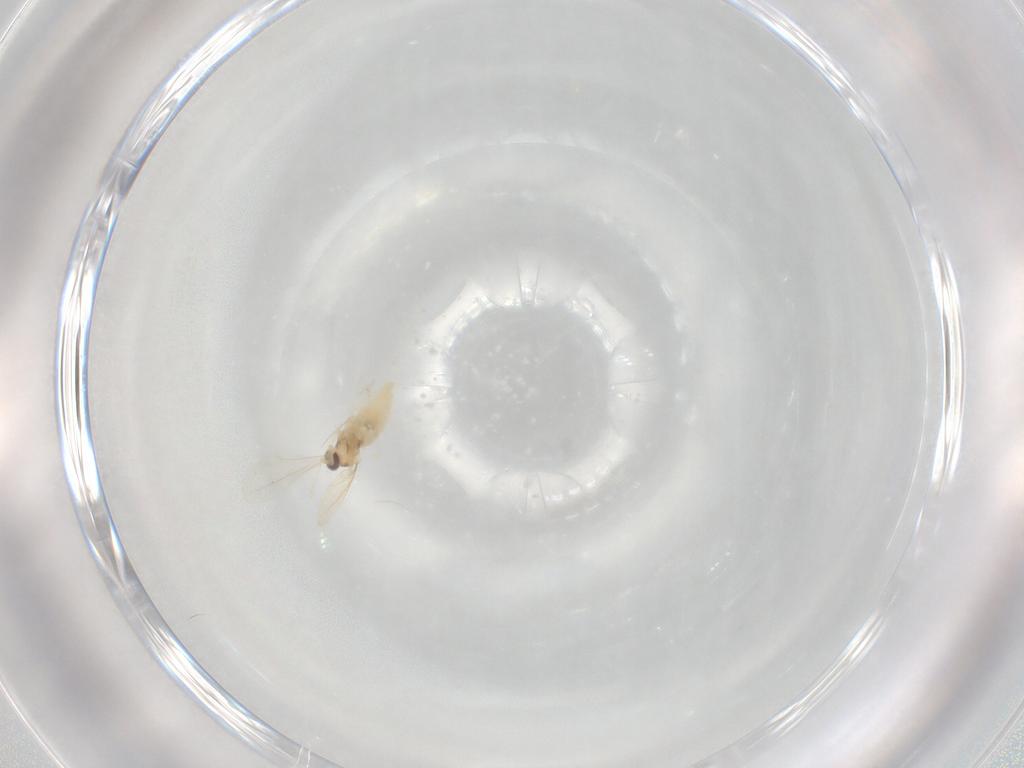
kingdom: Animalia
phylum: Arthropoda
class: Insecta
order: Diptera
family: Cecidomyiidae
